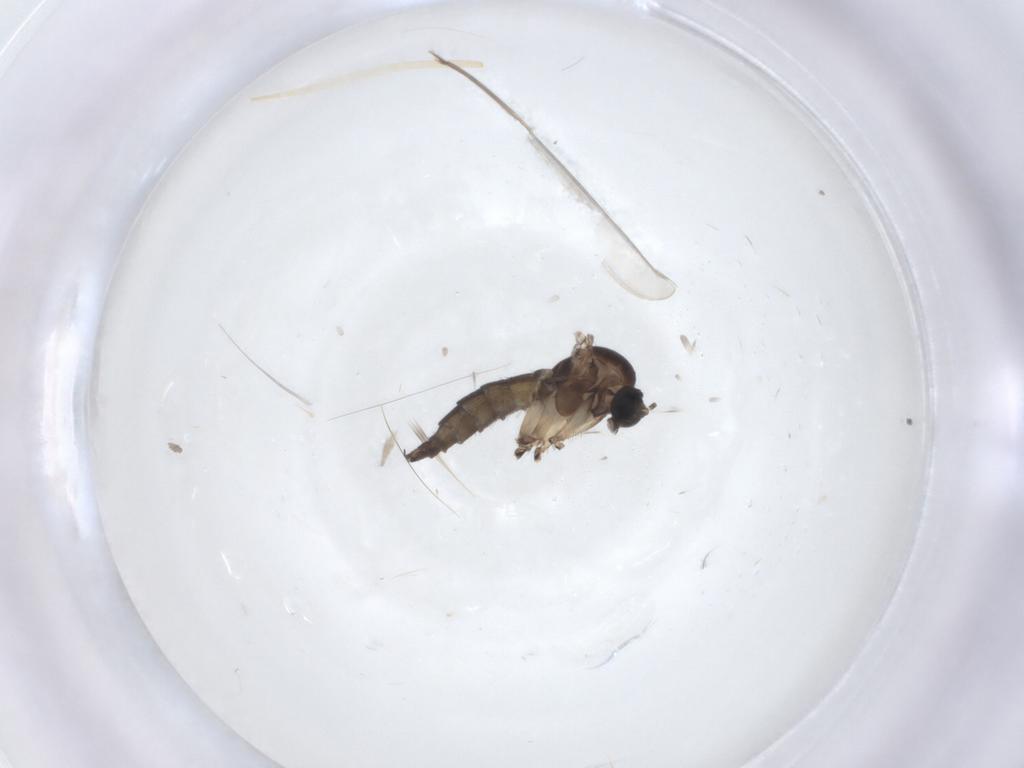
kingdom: Animalia
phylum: Arthropoda
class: Insecta
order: Diptera
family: Sciaridae
